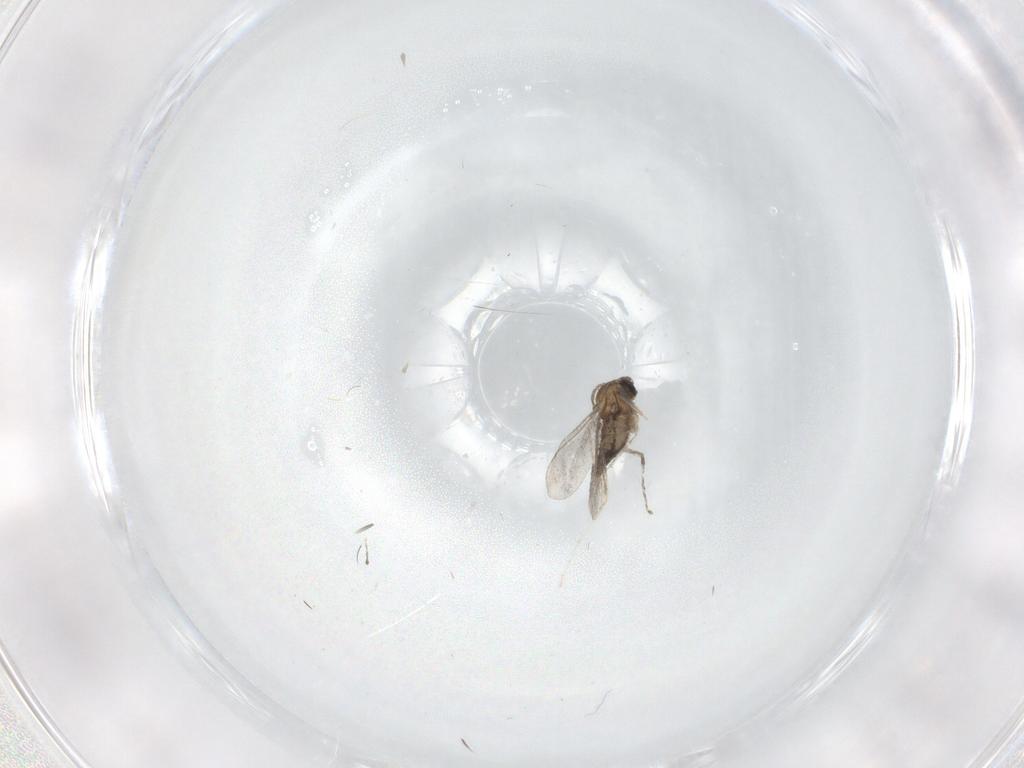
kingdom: Animalia
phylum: Arthropoda
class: Insecta
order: Diptera
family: Cecidomyiidae
